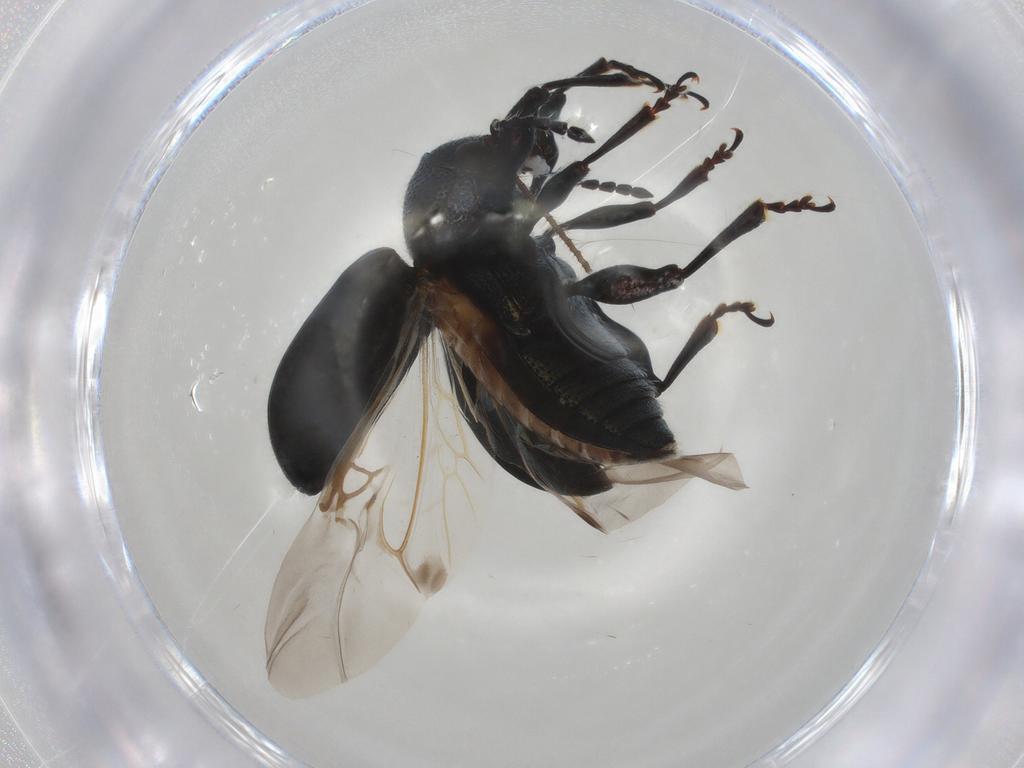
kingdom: Animalia
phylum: Arthropoda
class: Insecta
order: Coleoptera
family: Chrysomelidae
